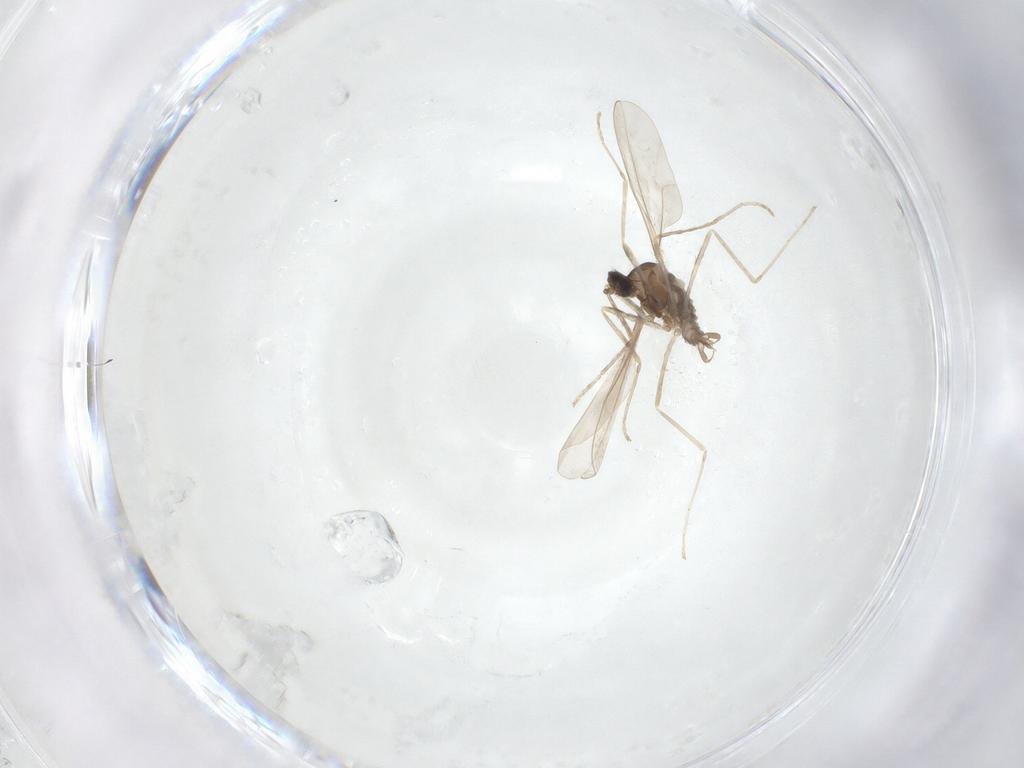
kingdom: Animalia
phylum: Arthropoda
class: Insecta
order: Diptera
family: Cecidomyiidae
